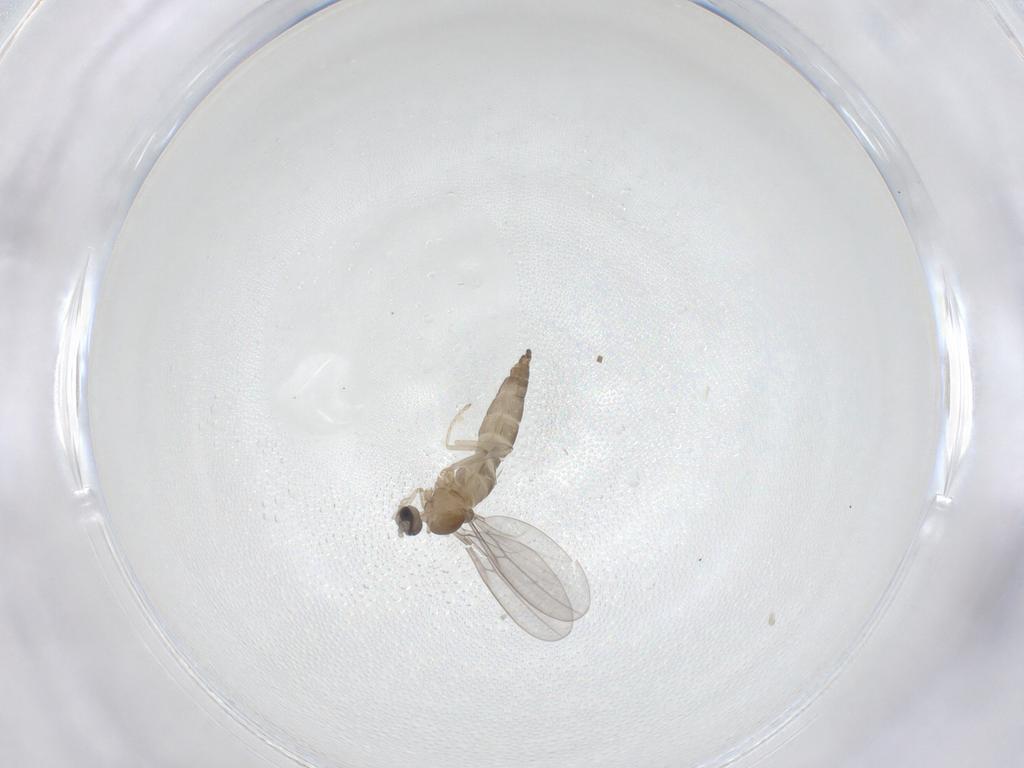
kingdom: Animalia
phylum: Arthropoda
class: Insecta
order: Diptera
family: Cecidomyiidae
